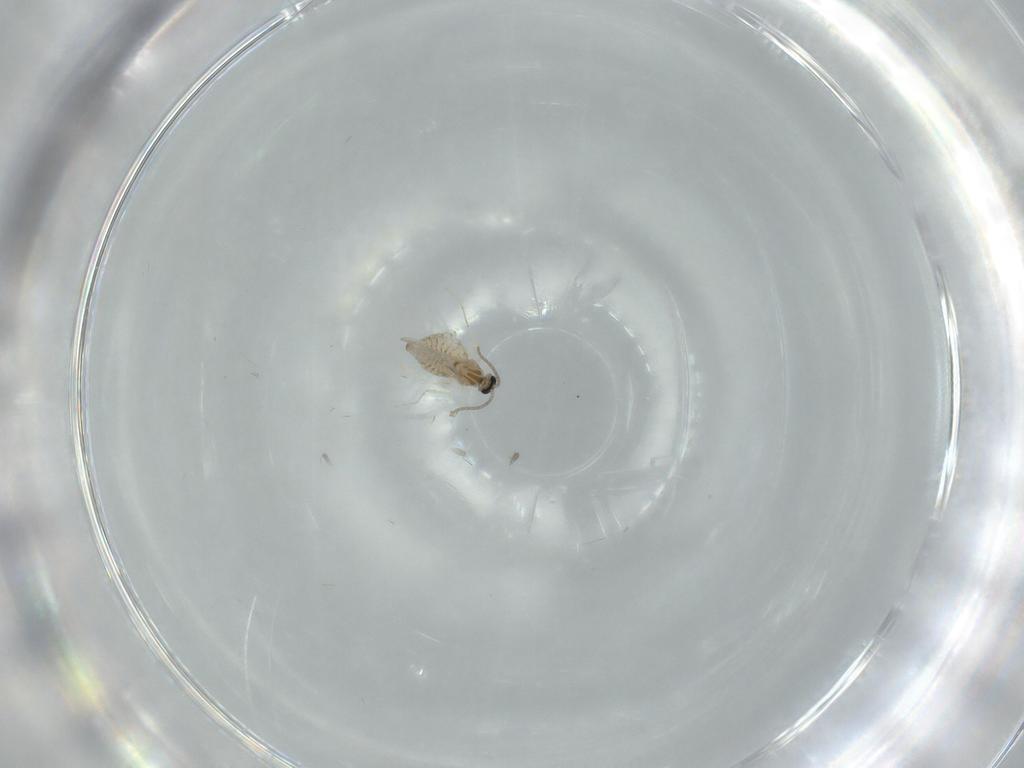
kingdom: Animalia
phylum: Arthropoda
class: Insecta
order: Diptera
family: Cecidomyiidae
